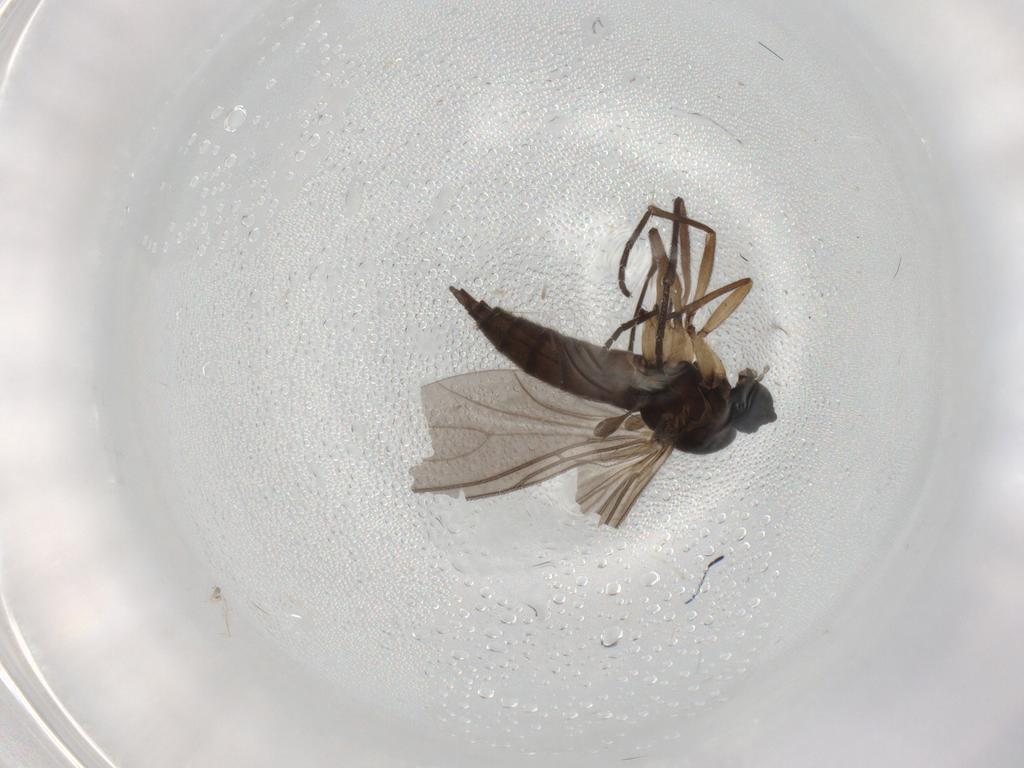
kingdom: Animalia
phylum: Arthropoda
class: Insecta
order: Diptera
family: Sciaridae
